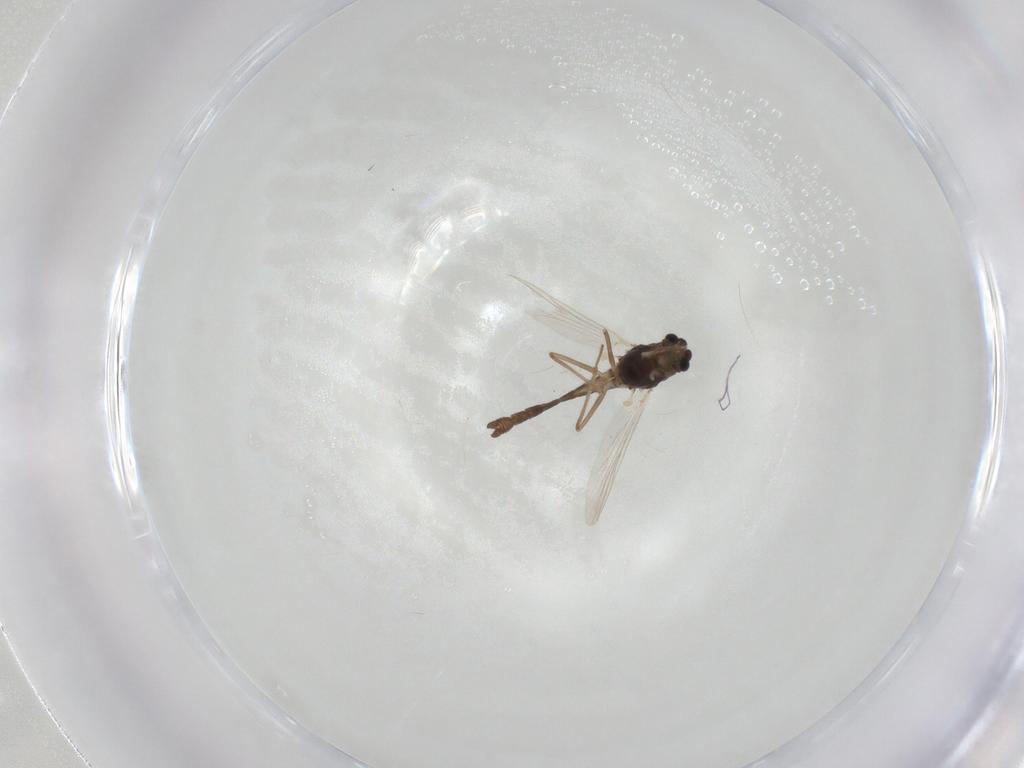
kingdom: Animalia
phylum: Arthropoda
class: Insecta
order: Diptera
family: Chironomidae
